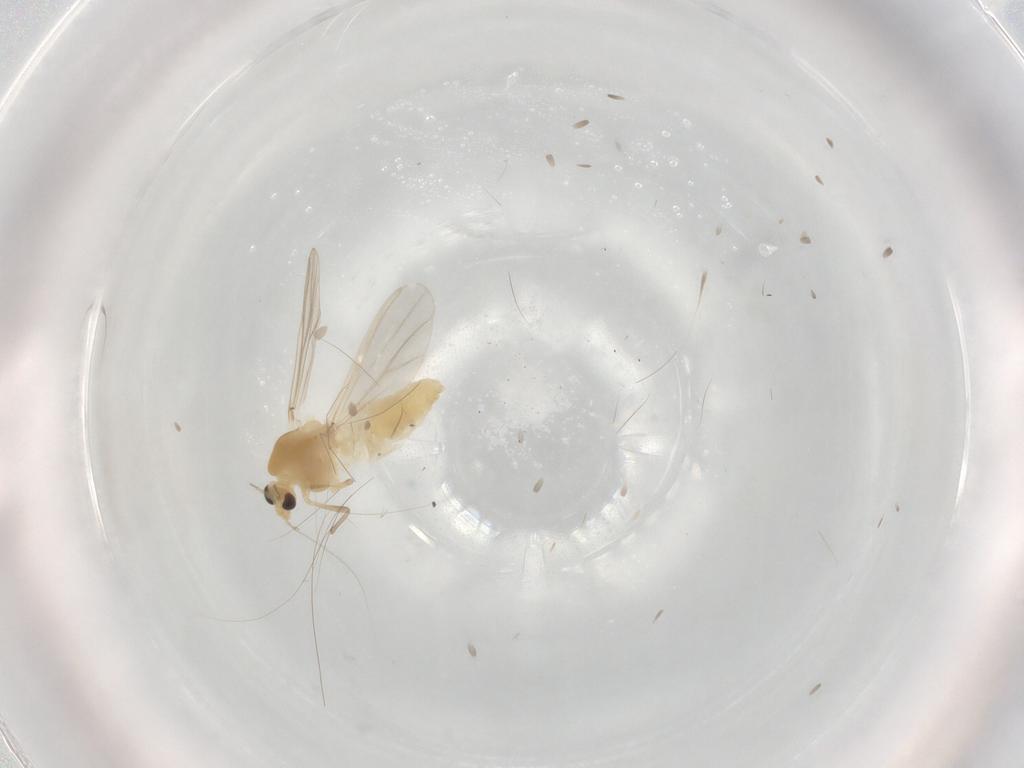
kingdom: Animalia
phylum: Arthropoda
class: Insecta
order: Diptera
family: Chironomidae
